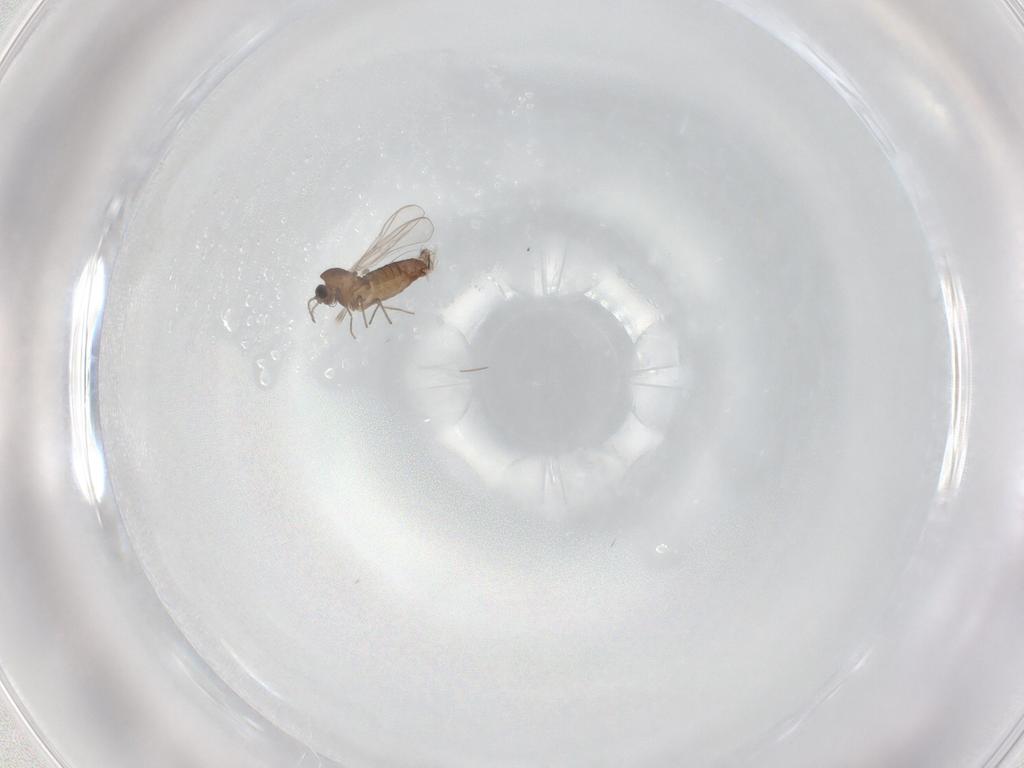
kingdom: Animalia
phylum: Arthropoda
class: Insecta
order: Diptera
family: Chironomidae
